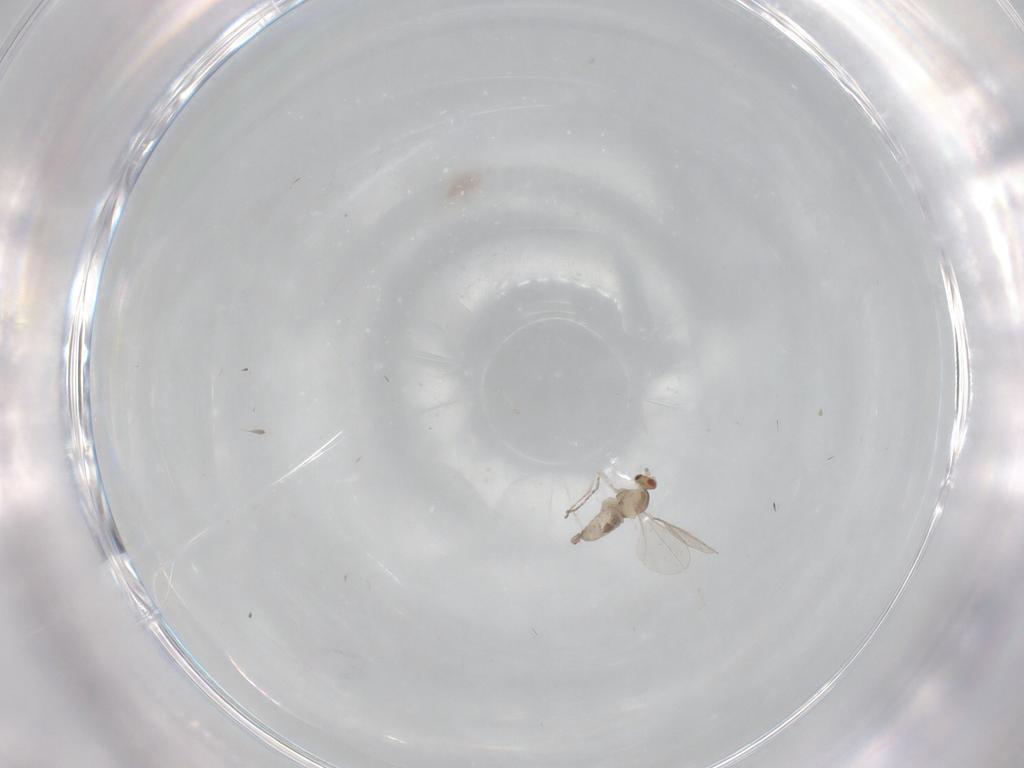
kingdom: Animalia
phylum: Arthropoda
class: Insecta
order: Diptera
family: Cecidomyiidae
